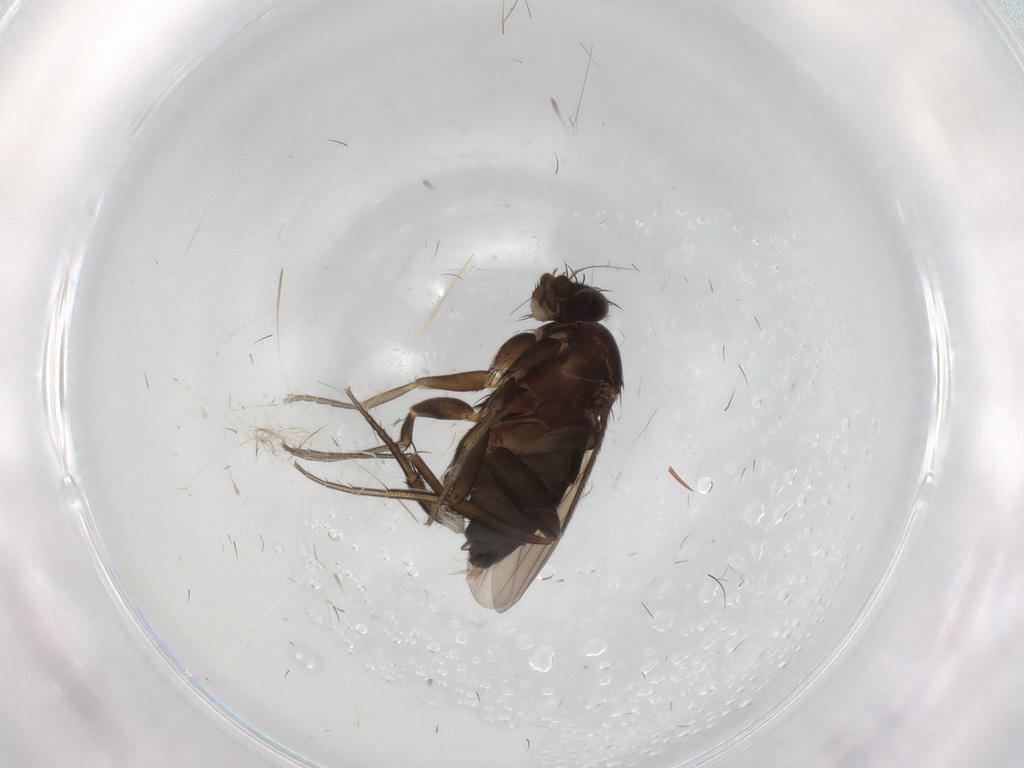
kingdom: Animalia
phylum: Arthropoda
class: Insecta
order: Diptera
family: Phoridae
